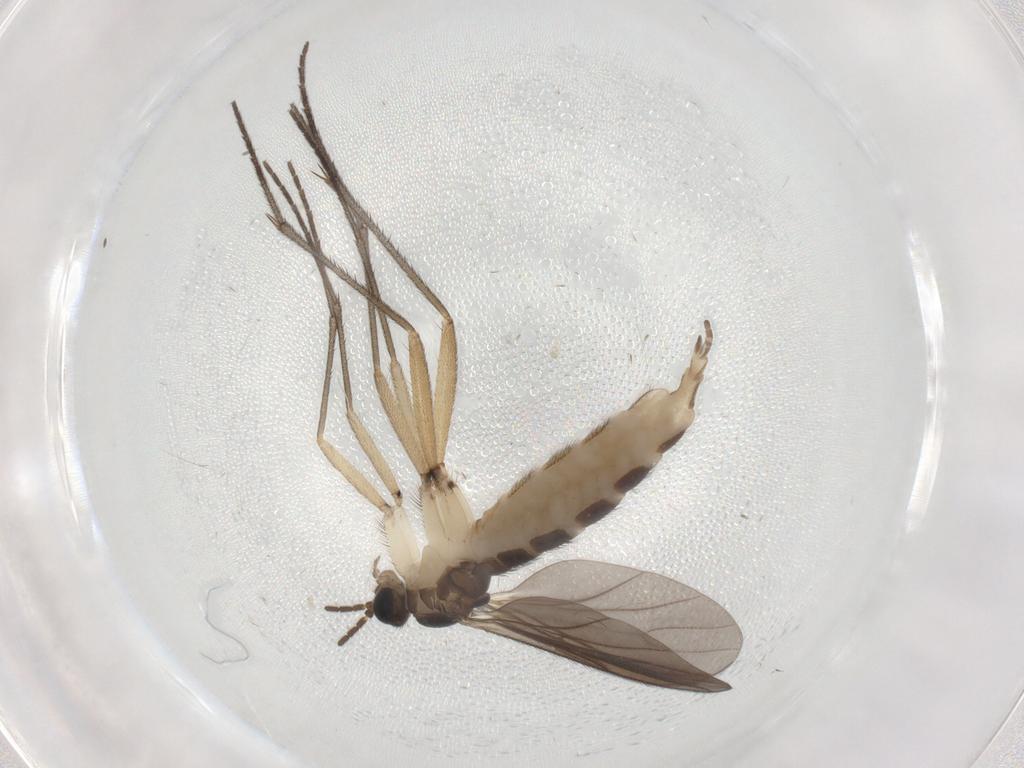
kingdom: Animalia
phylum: Arthropoda
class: Insecta
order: Diptera
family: Sciaridae
